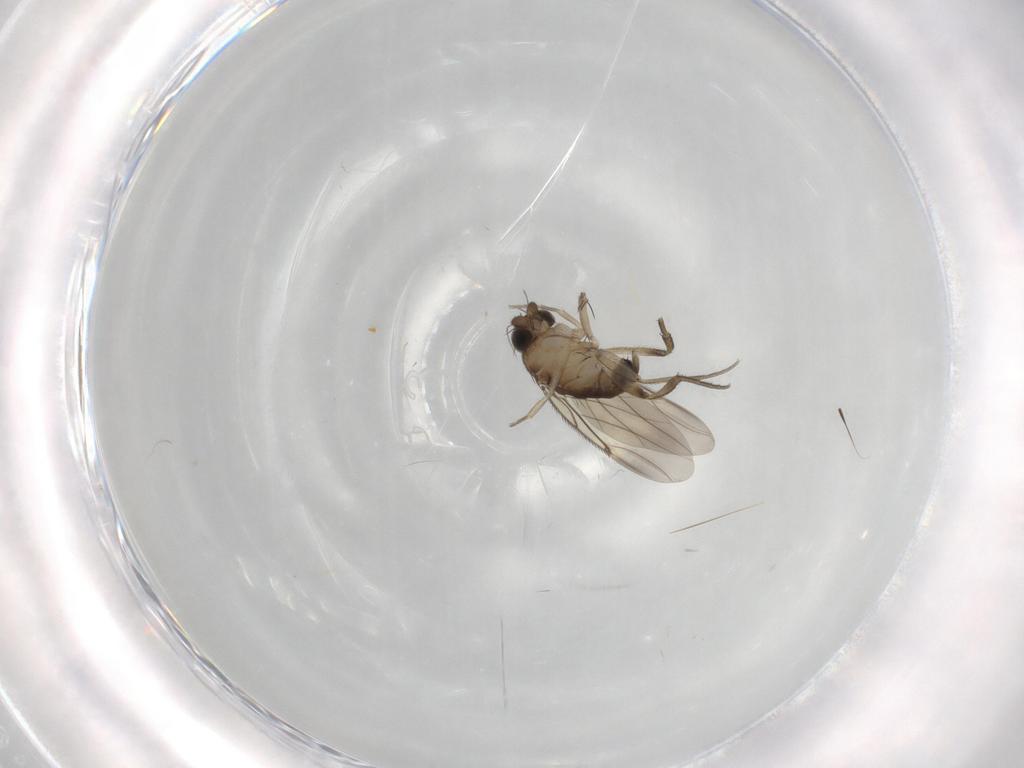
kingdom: Animalia
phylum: Arthropoda
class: Insecta
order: Diptera
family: Phoridae
